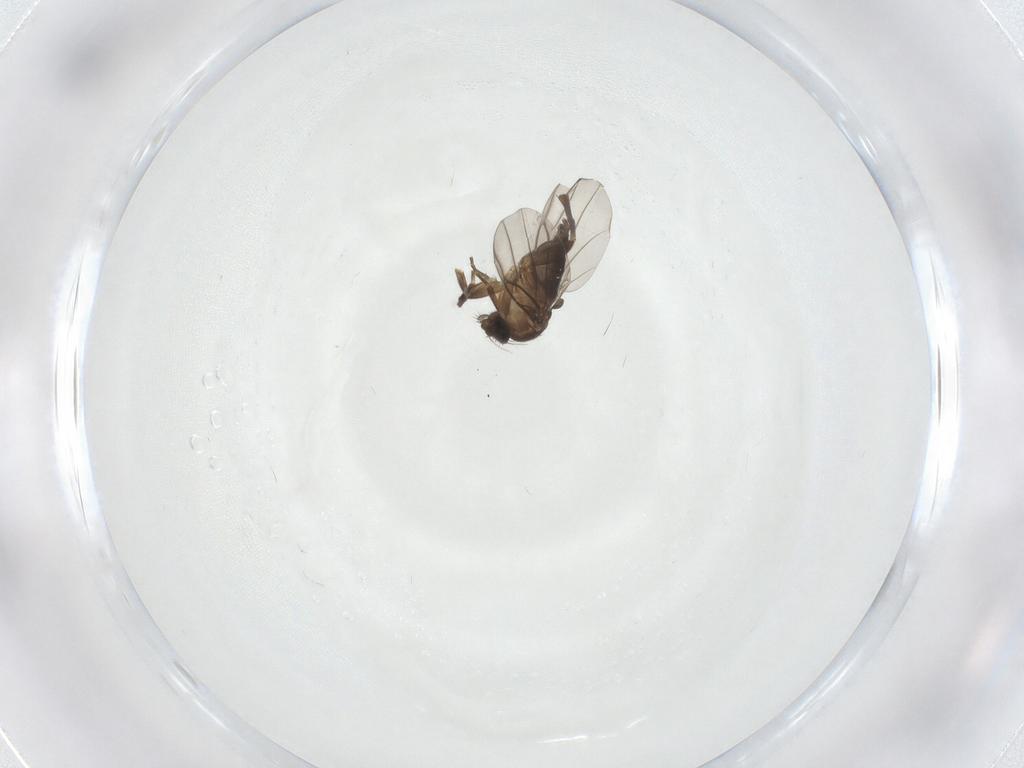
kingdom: Animalia
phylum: Arthropoda
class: Insecta
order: Diptera
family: Phoridae
